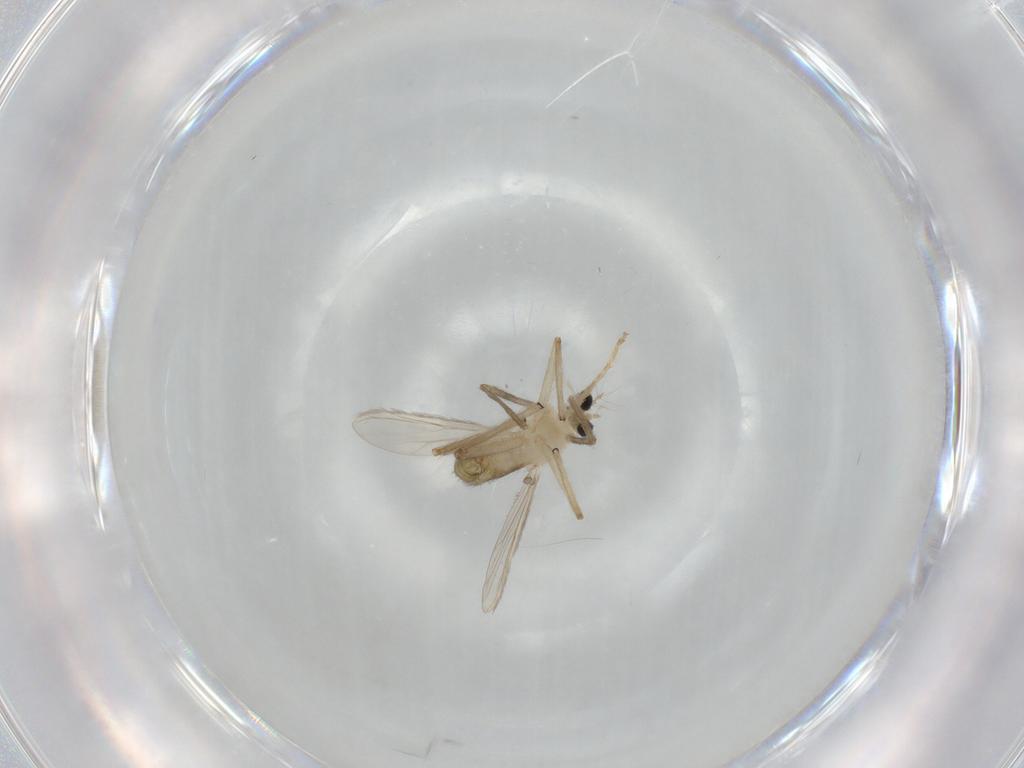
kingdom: Animalia
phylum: Arthropoda
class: Insecta
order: Diptera
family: Chironomidae
